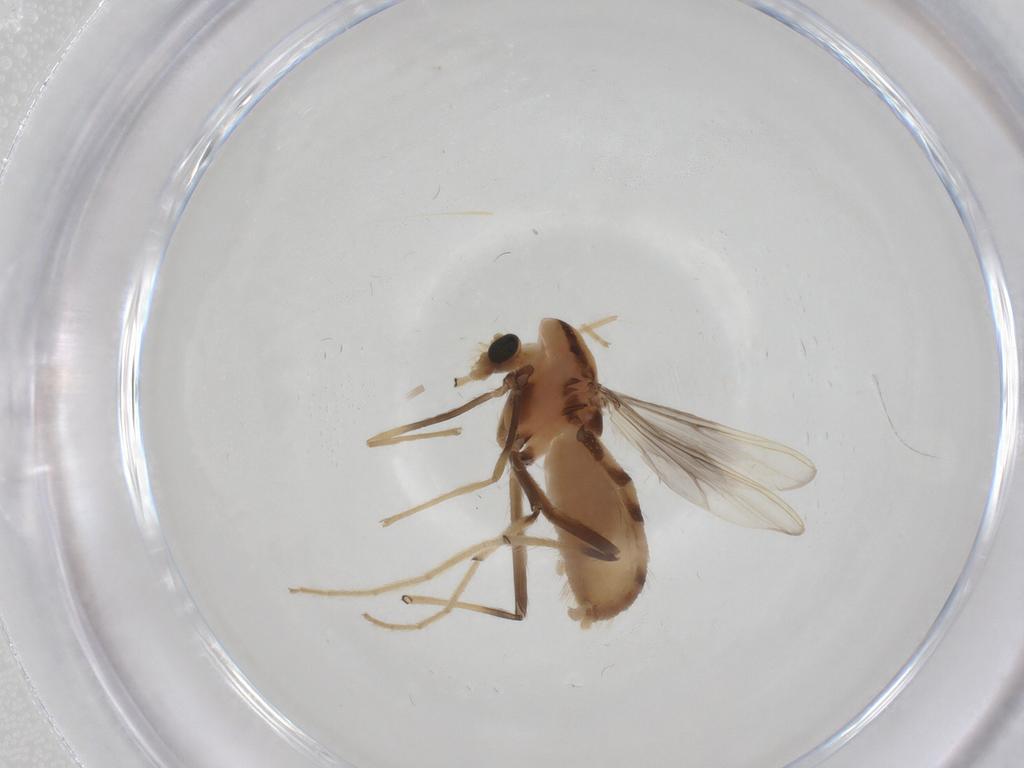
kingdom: Animalia
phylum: Arthropoda
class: Insecta
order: Diptera
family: Chironomidae
